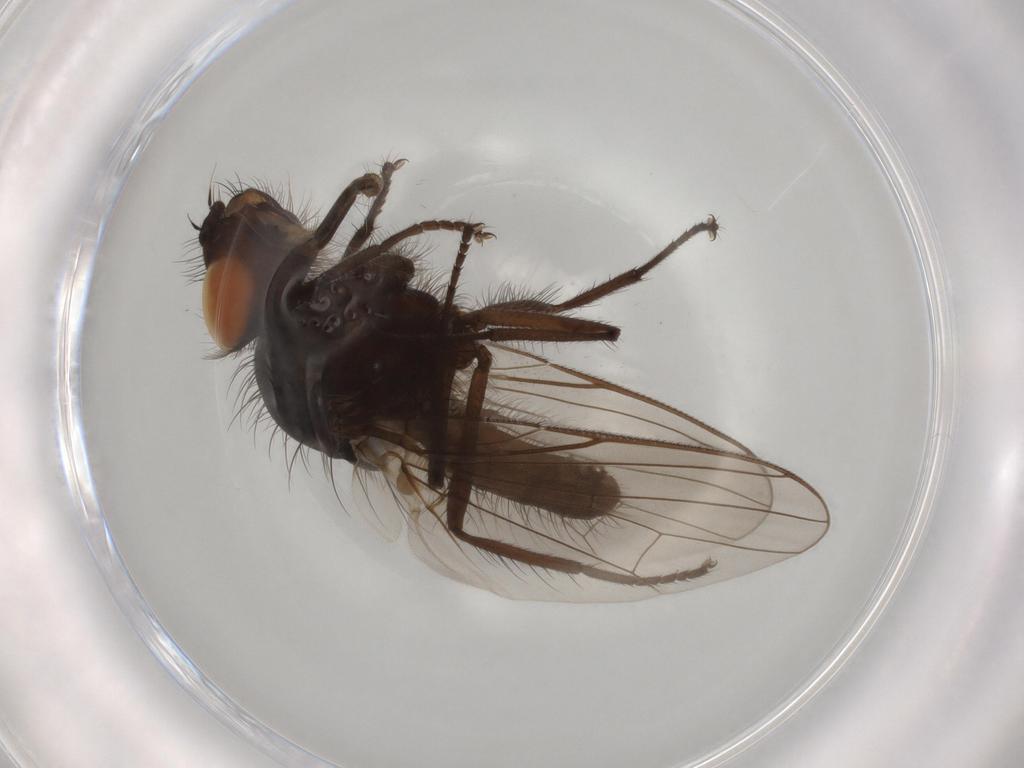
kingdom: Animalia
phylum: Arthropoda
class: Insecta
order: Diptera
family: Anthomyiidae
